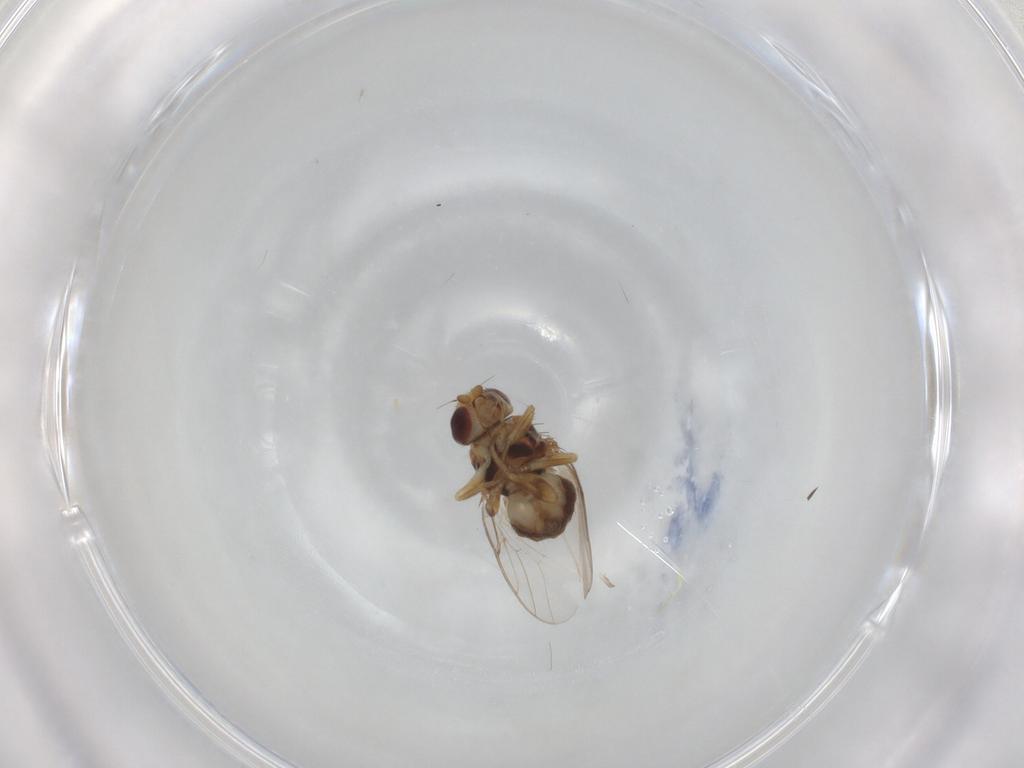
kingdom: Animalia
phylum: Arthropoda
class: Insecta
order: Diptera
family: Chloropidae
